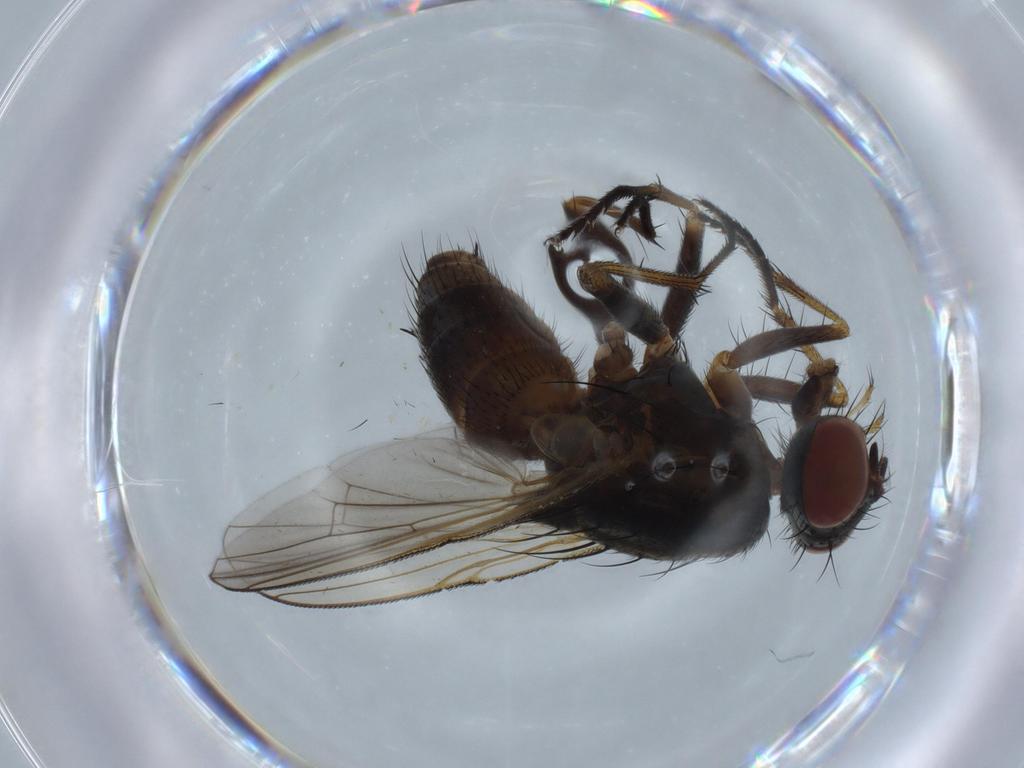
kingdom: Animalia
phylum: Arthropoda
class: Insecta
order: Diptera
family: Muscidae
